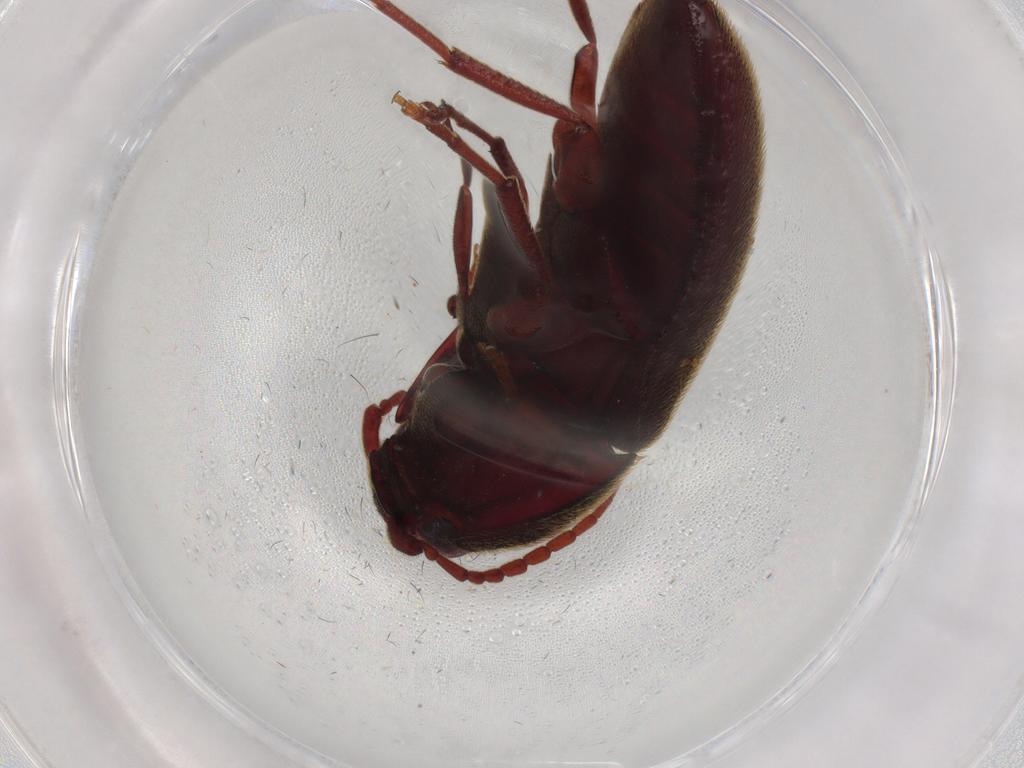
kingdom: Animalia
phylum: Arthropoda
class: Insecta
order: Coleoptera
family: Eucnemidae
